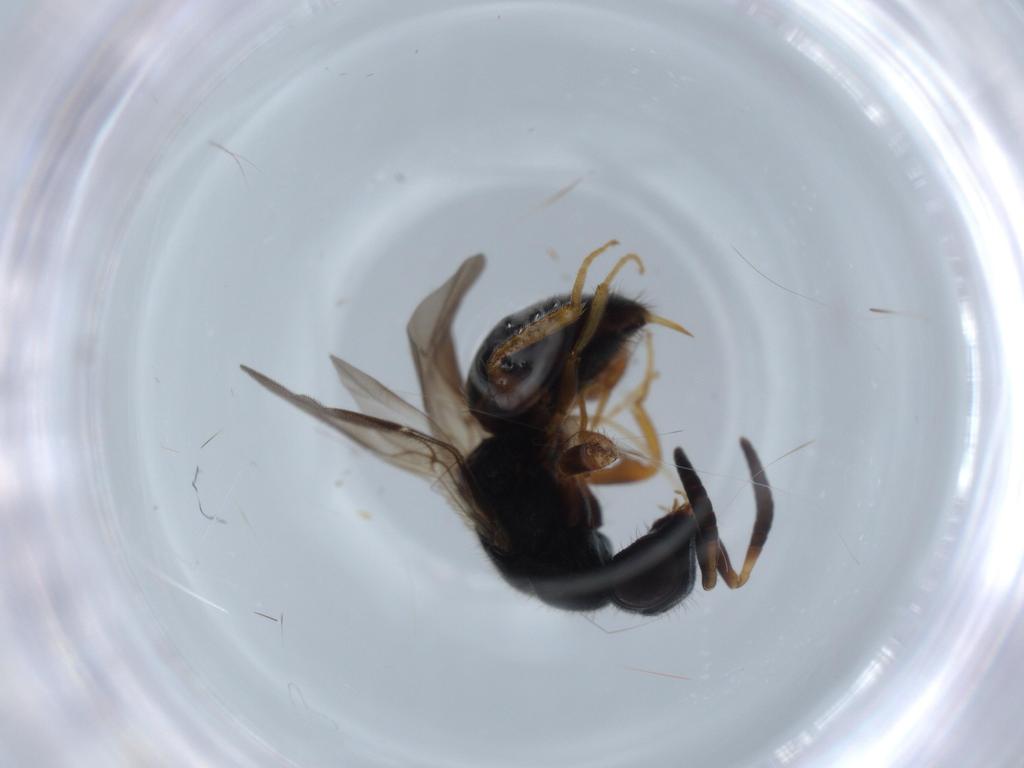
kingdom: Animalia
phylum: Arthropoda
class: Insecta
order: Hymenoptera
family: Chrysididae
